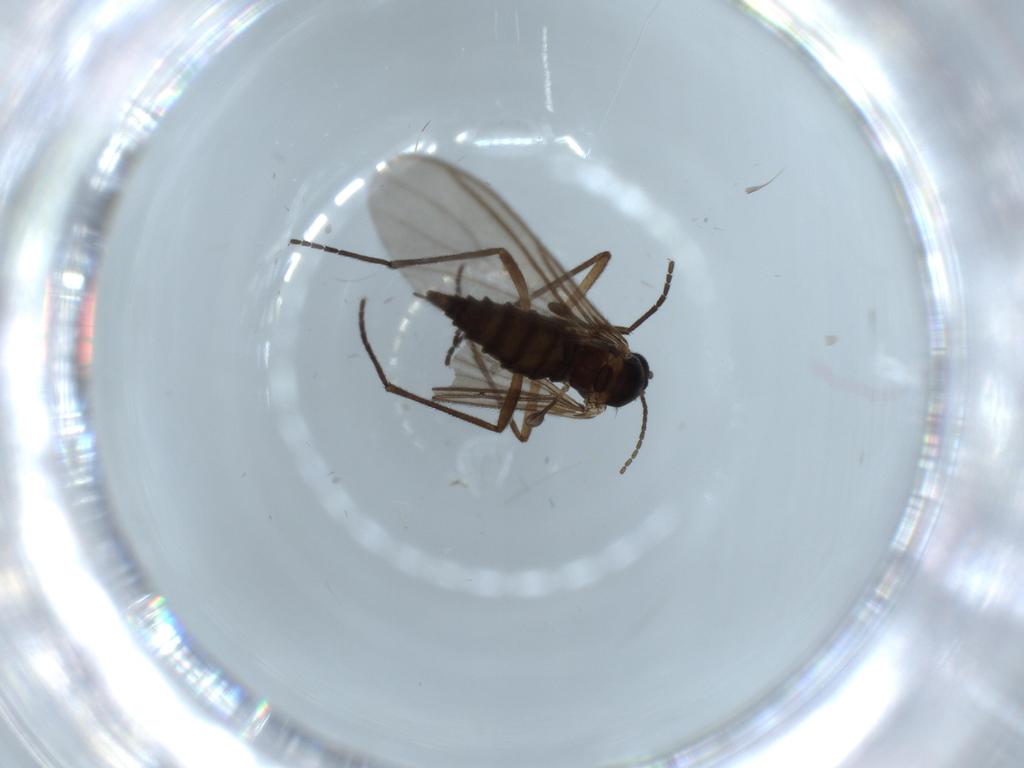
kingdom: Animalia
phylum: Arthropoda
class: Insecta
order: Diptera
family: Sciaridae
